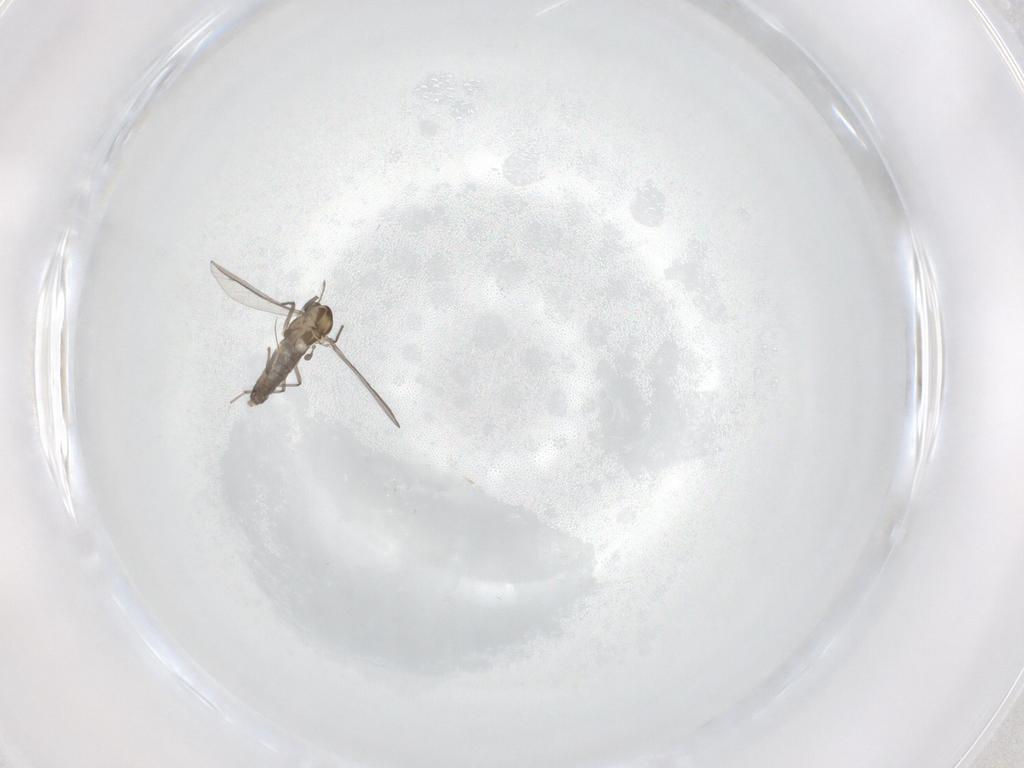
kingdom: Animalia
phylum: Arthropoda
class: Insecta
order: Diptera
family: Chironomidae
